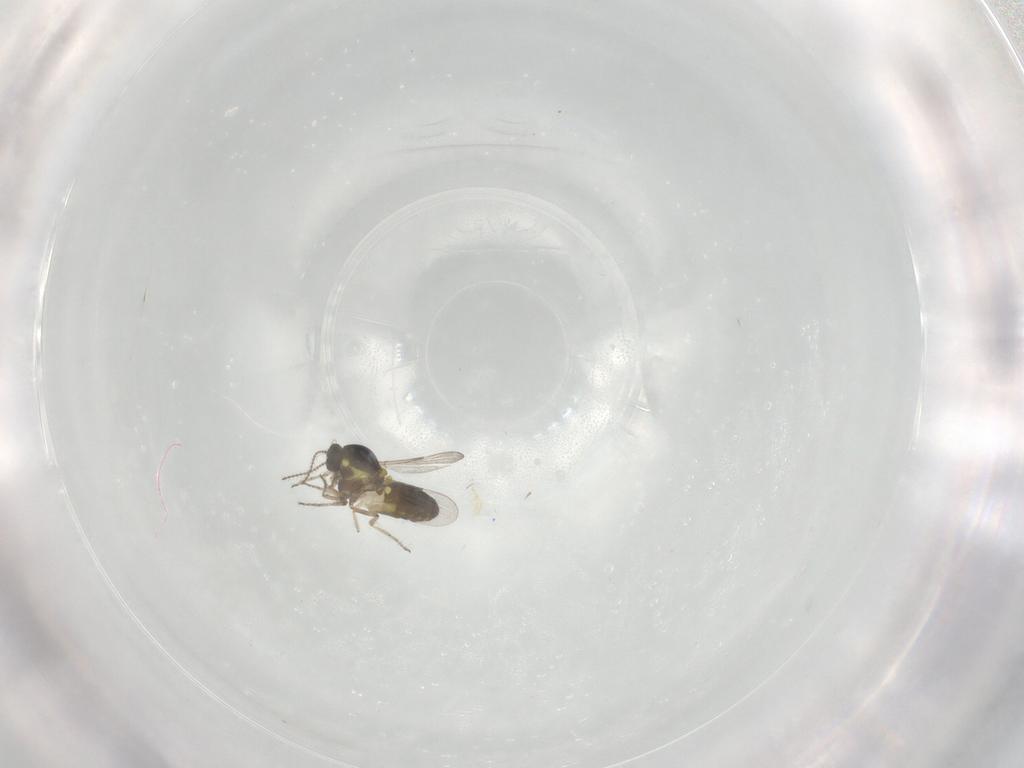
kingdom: Animalia
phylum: Arthropoda
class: Insecta
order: Diptera
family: Ceratopogonidae
